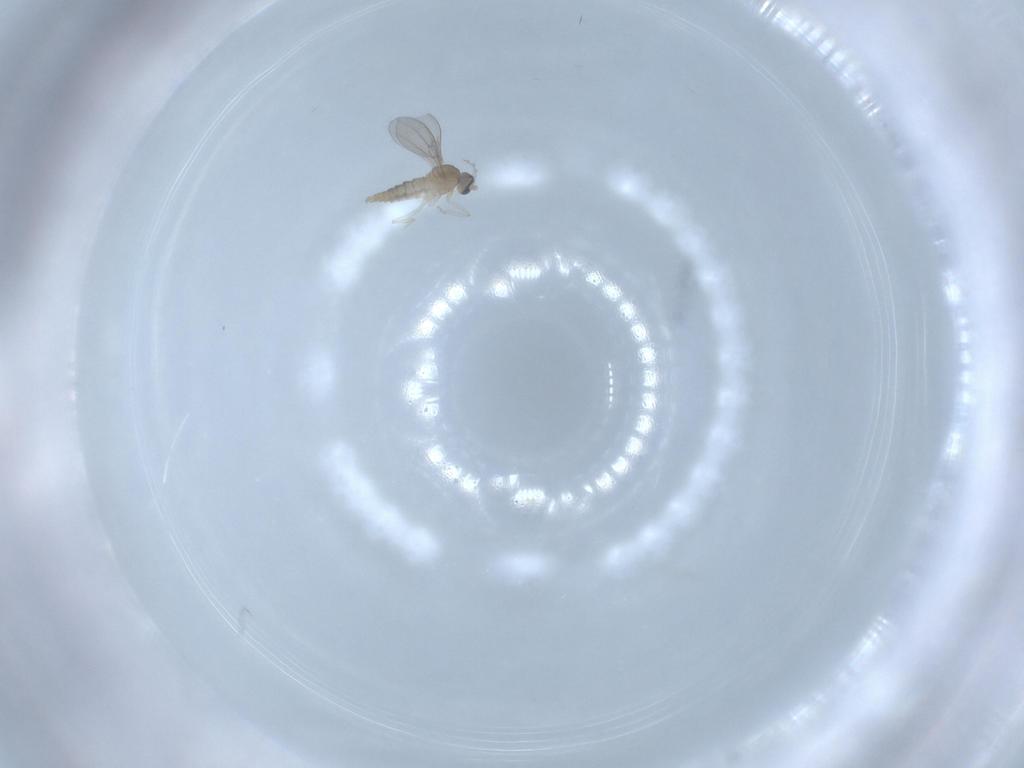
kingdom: Animalia
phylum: Arthropoda
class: Insecta
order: Diptera
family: Cecidomyiidae
